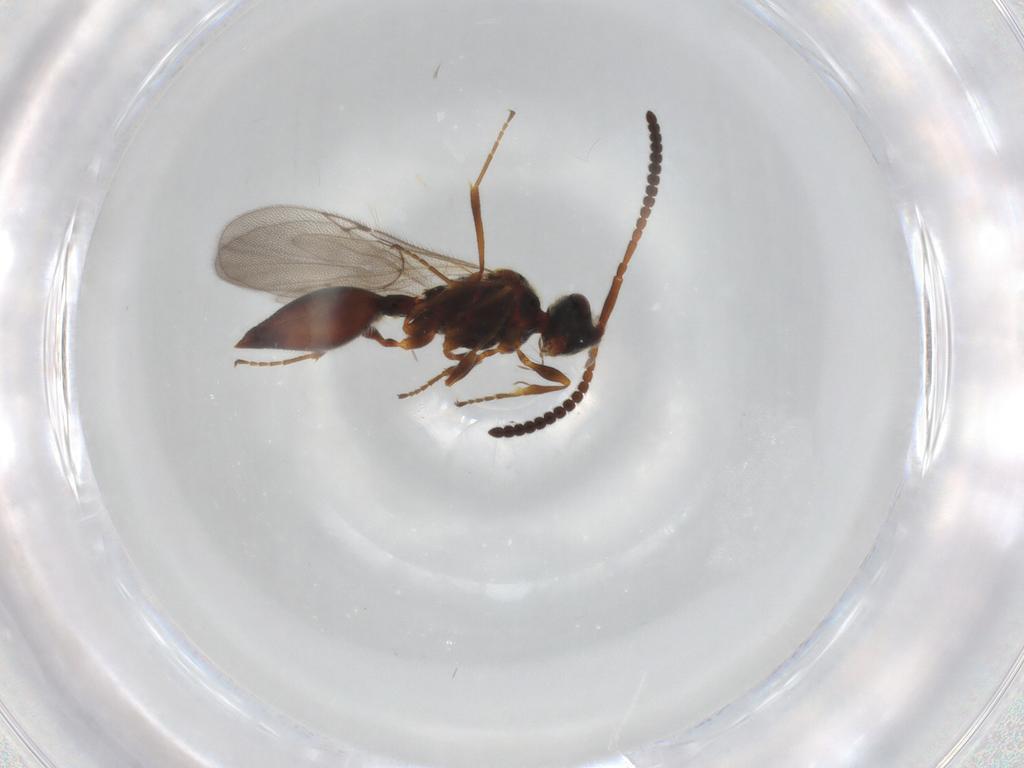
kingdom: Animalia
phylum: Arthropoda
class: Insecta
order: Hymenoptera
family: Diapriidae
